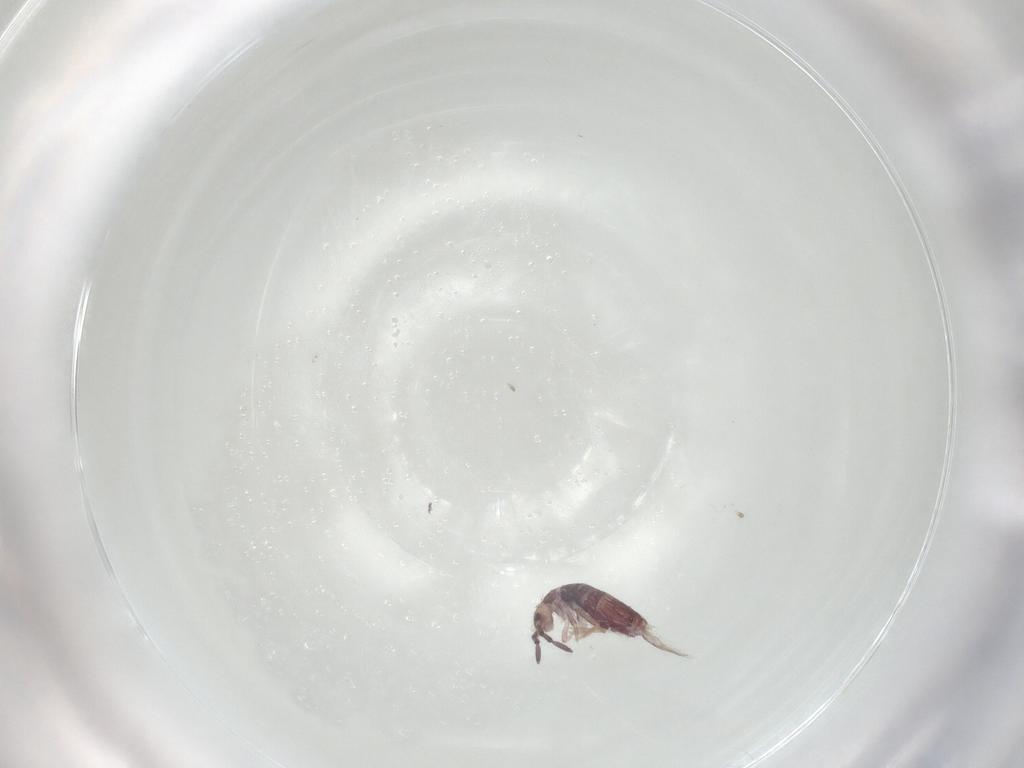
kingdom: Animalia
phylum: Arthropoda
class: Collembola
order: Entomobryomorpha
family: Entomobryidae
